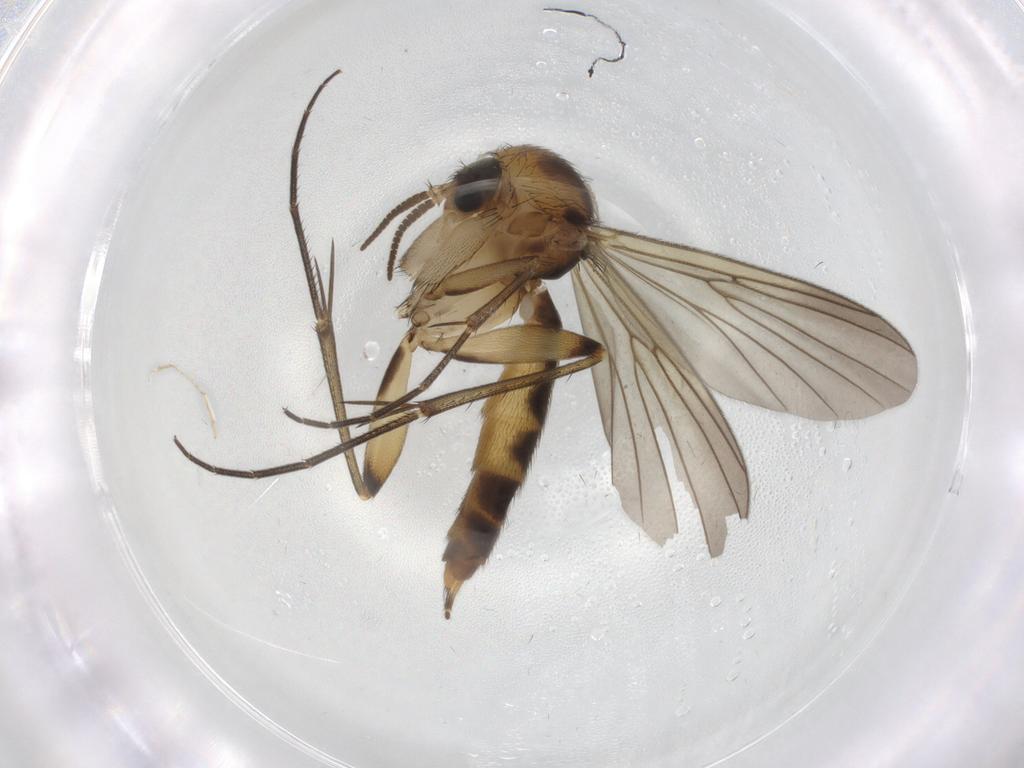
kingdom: Animalia
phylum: Arthropoda
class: Insecta
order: Diptera
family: Mycetophilidae
